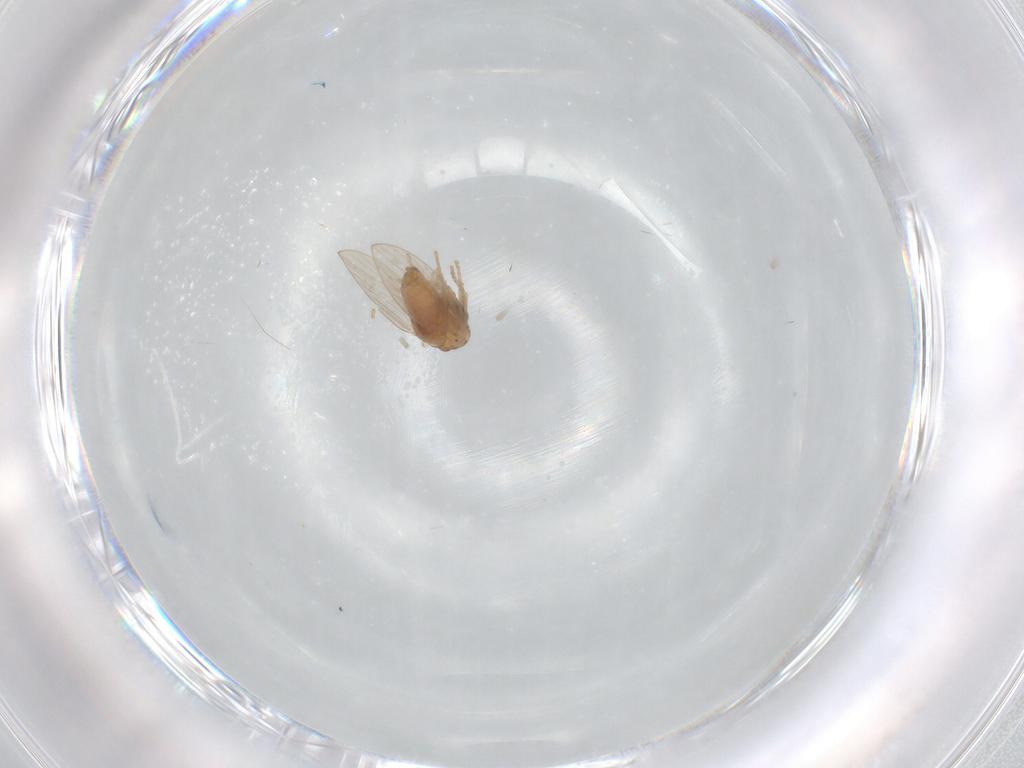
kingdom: Animalia
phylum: Arthropoda
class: Insecta
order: Diptera
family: Psychodidae
